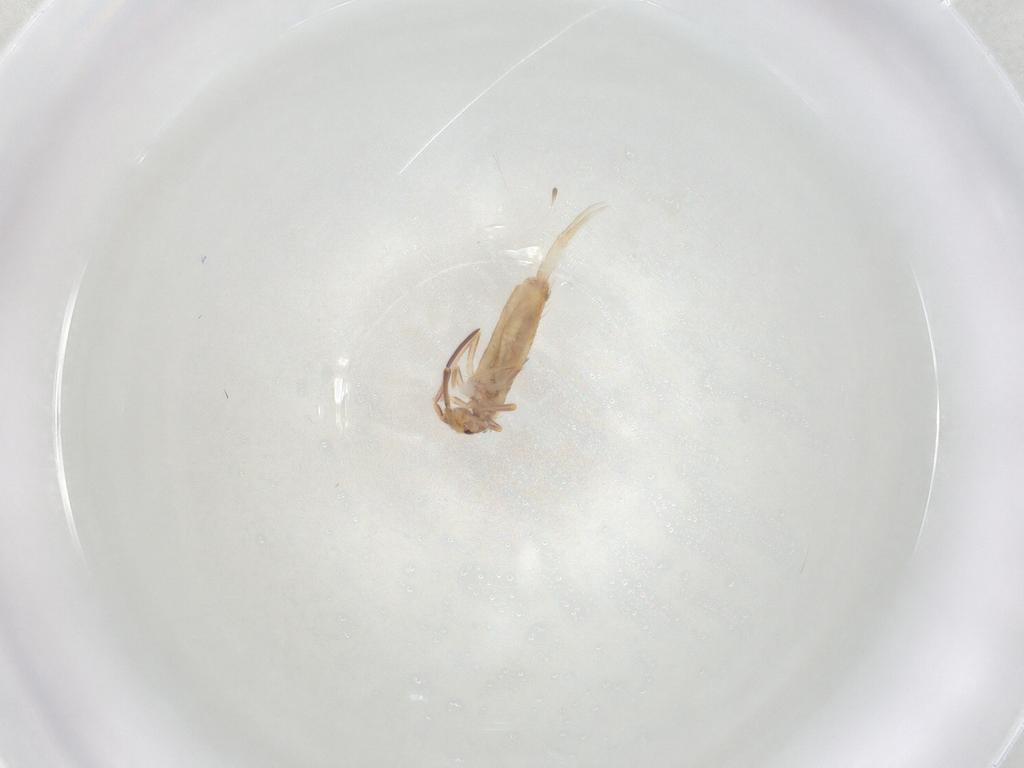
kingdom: Animalia
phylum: Arthropoda
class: Collembola
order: Entomobryomorpha
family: Entomobryidae
